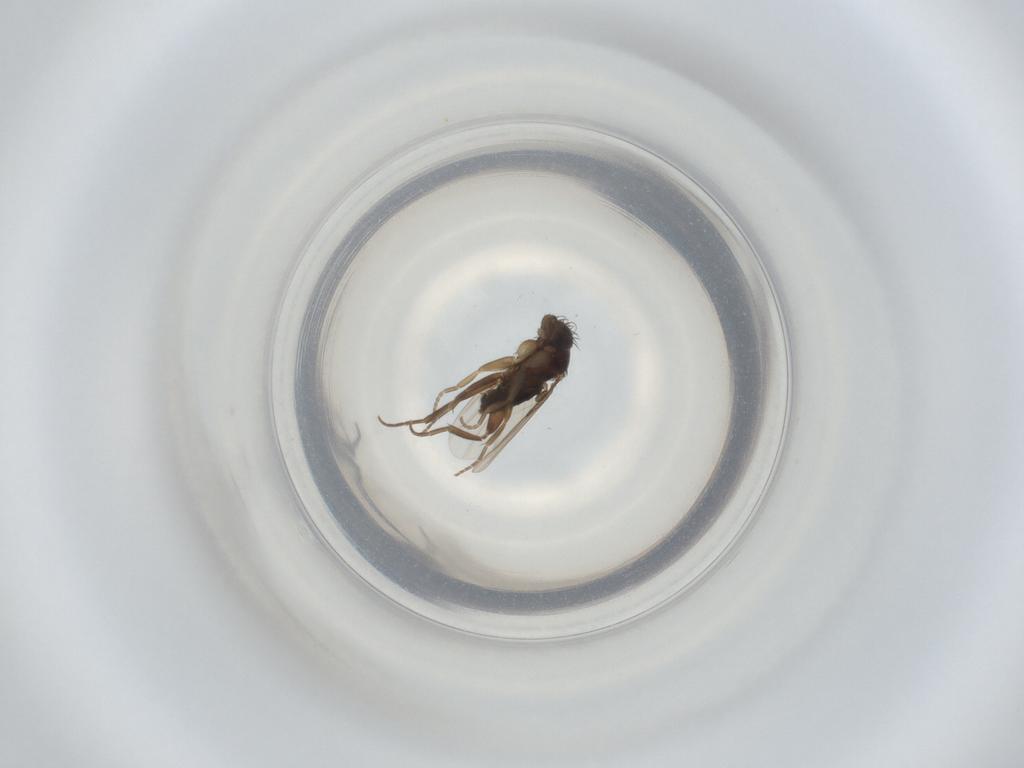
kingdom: Animalia
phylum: Arthropoda
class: Insecta
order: Diptera
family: Phoridae
